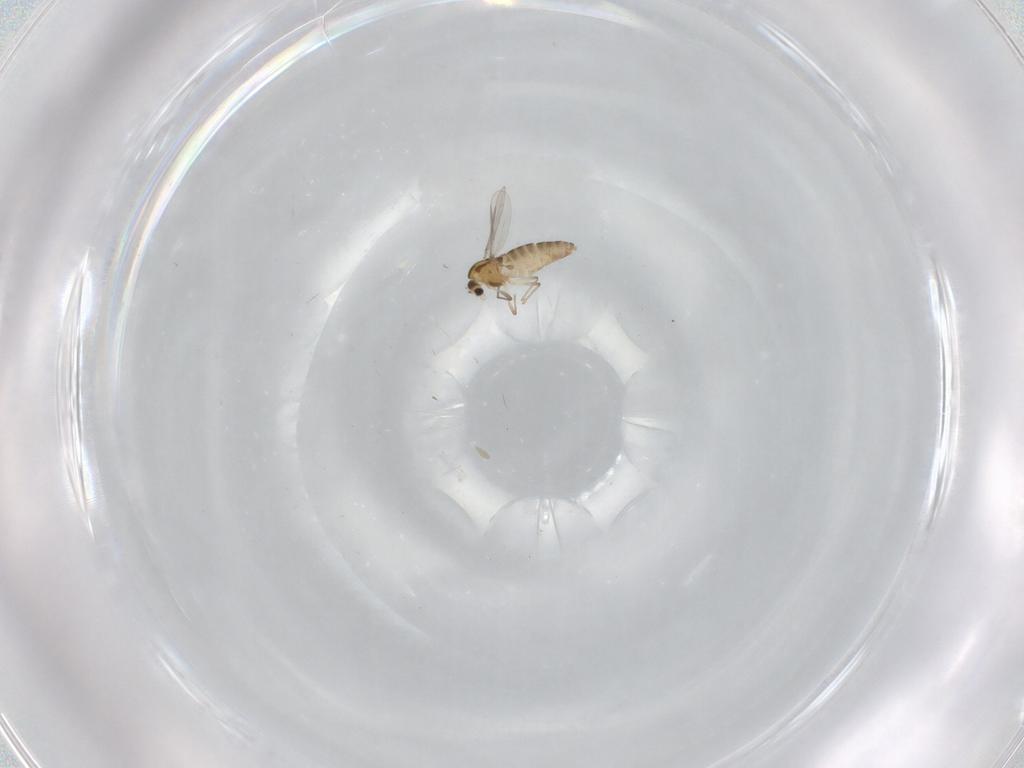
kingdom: Animalia
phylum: Arthropoda
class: Insecta
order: Diptera
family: Chironomidae
